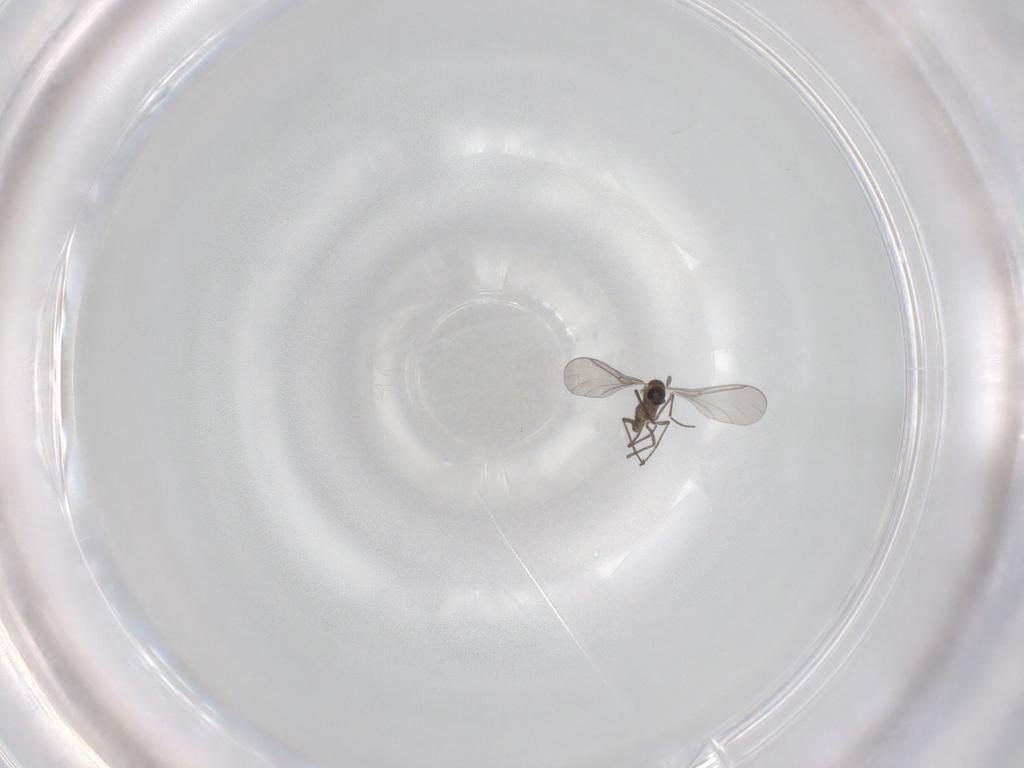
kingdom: Animalia
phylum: Arthropoda
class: Insecta
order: Diptera
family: Sciaridae
